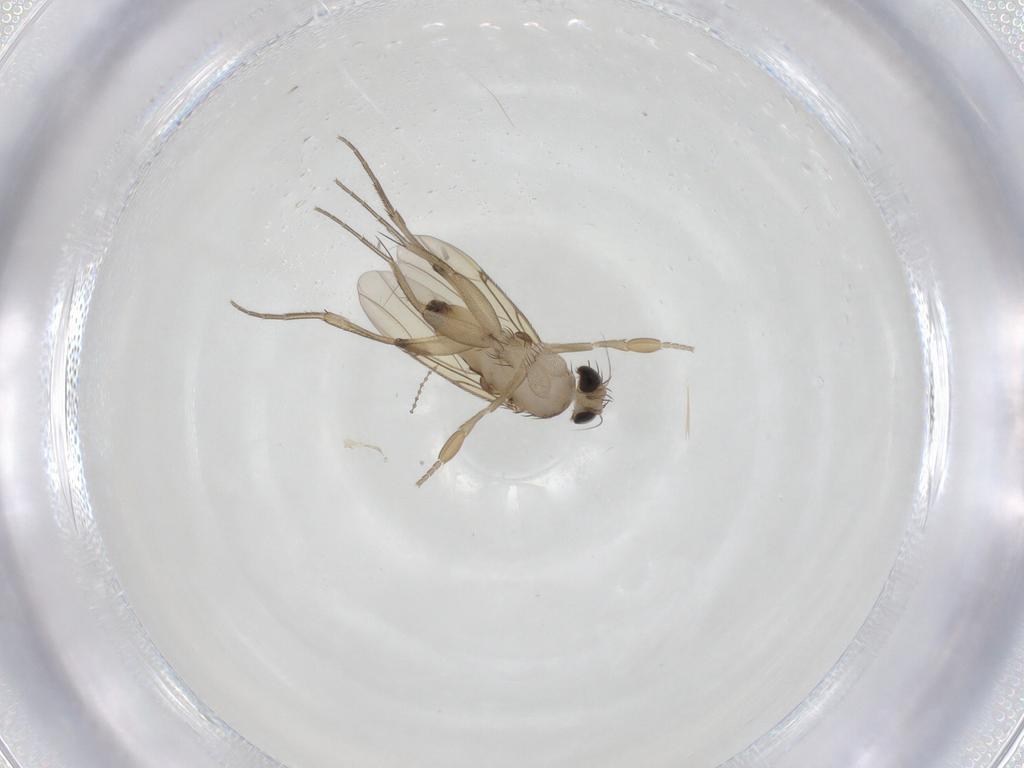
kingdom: Animalia
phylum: Arthropoda
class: Insecta
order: Diptera
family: Phoridae
